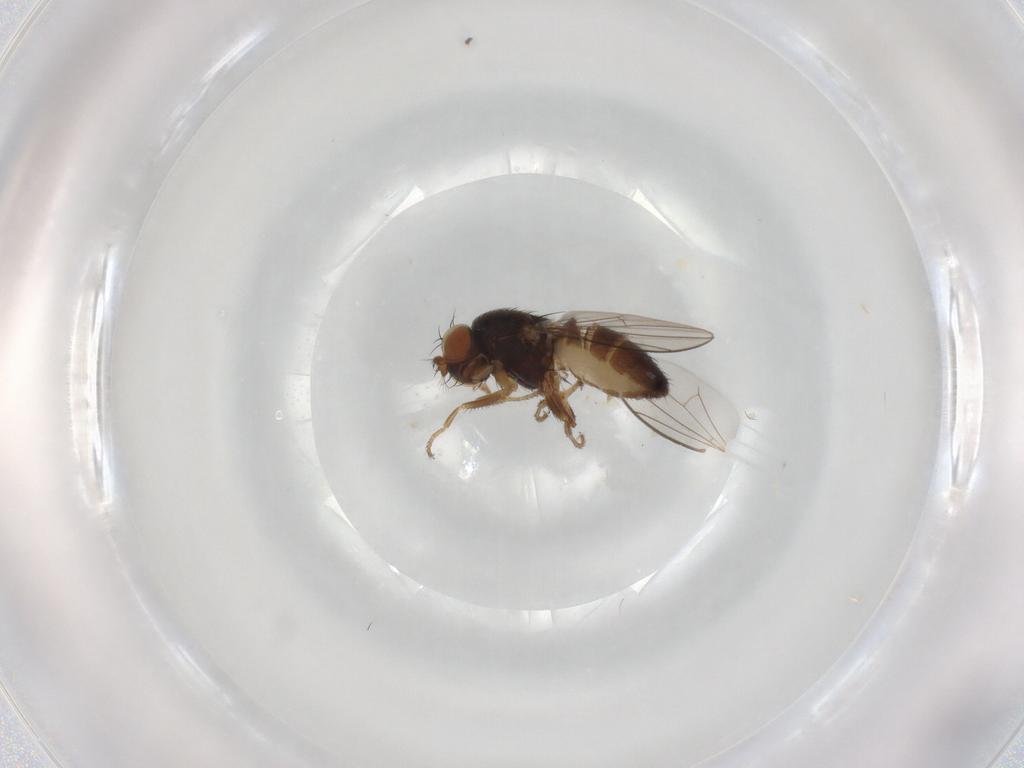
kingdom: Animalia
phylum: Arthropoda
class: Insecta
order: Diptera
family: Ephydridae
